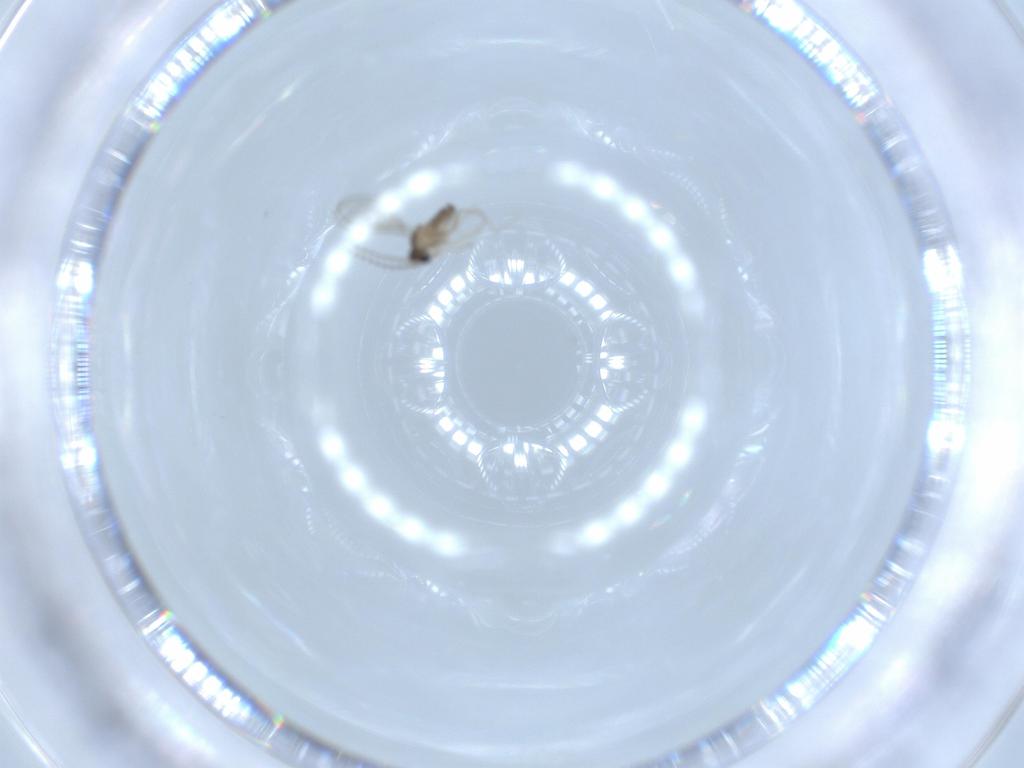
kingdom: Animalia
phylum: Arthropoda
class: Insecta
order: Diptera
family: Cecidomyiidae
